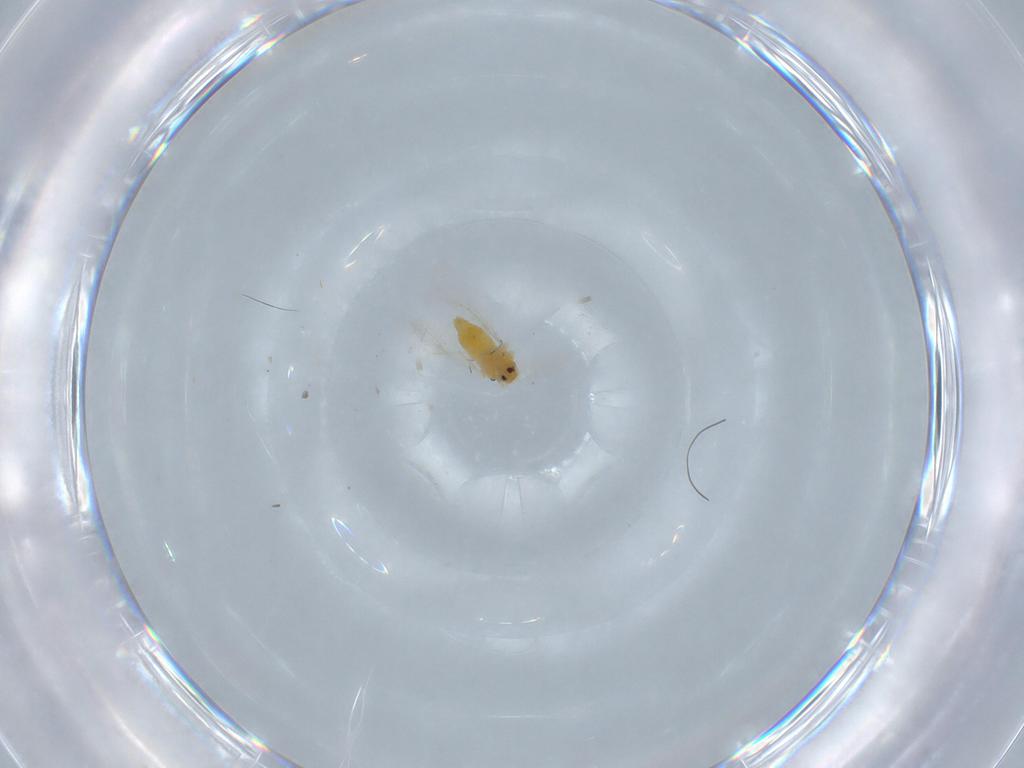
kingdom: Animalia
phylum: Arthropoda
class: Insecta
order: Hemiptera
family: Aleyrodidae
